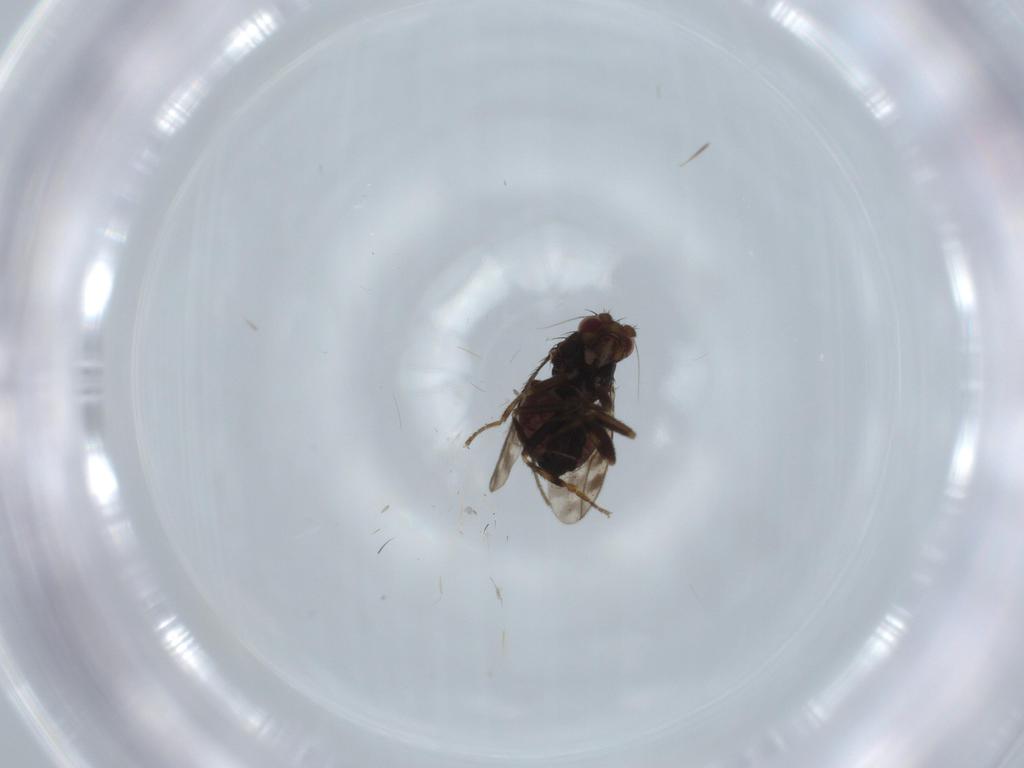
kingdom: Animalia
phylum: Arthropoda
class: Insecta
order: Diptera
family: Sphaeroceridae
